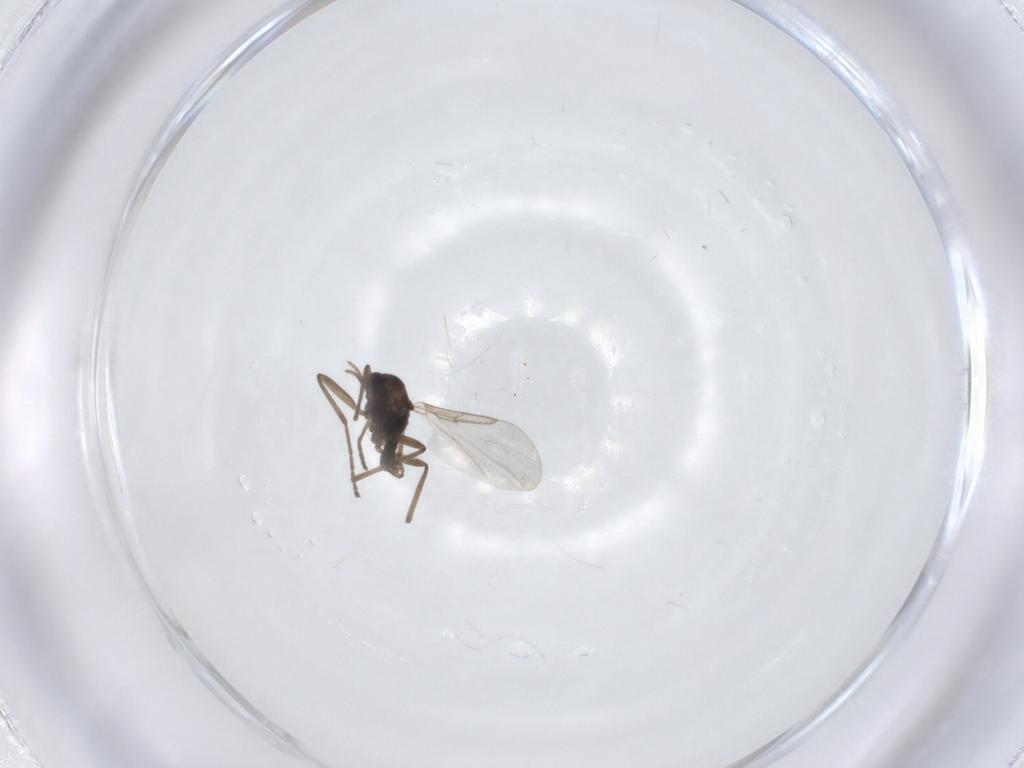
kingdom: Animalia
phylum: Arthropoda
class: Insecta
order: Diptera
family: Cecidomyiidae
